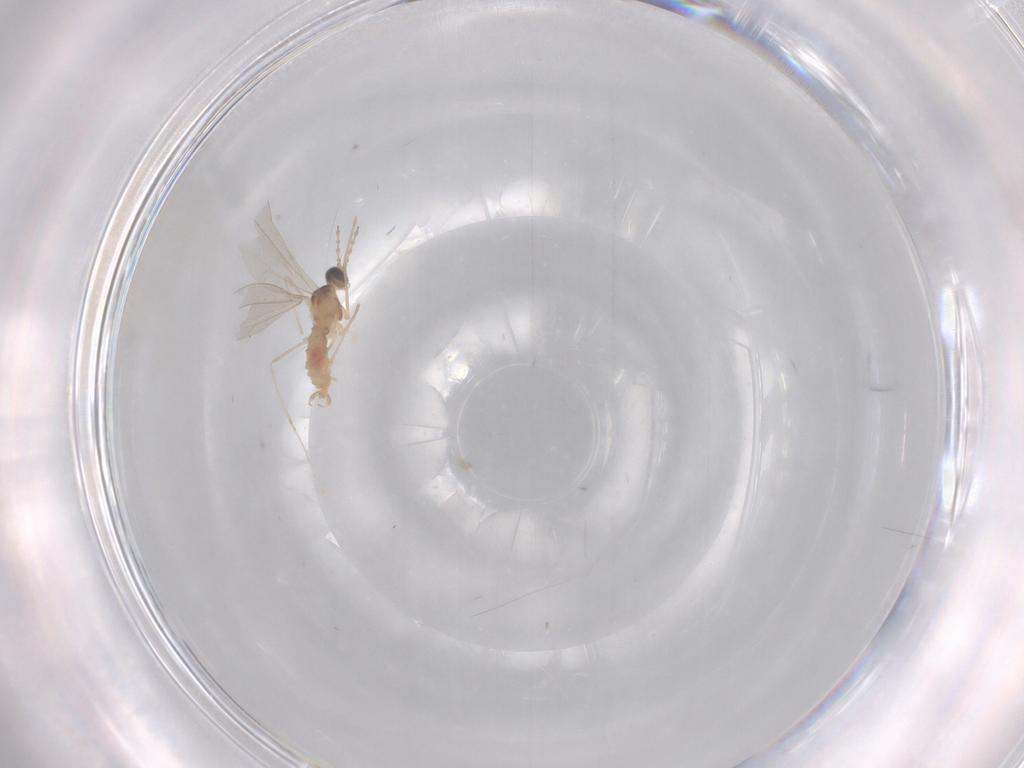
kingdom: Animalia
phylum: Arthropoda
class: Insecta
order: Diptera
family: Cecidomyiidae
